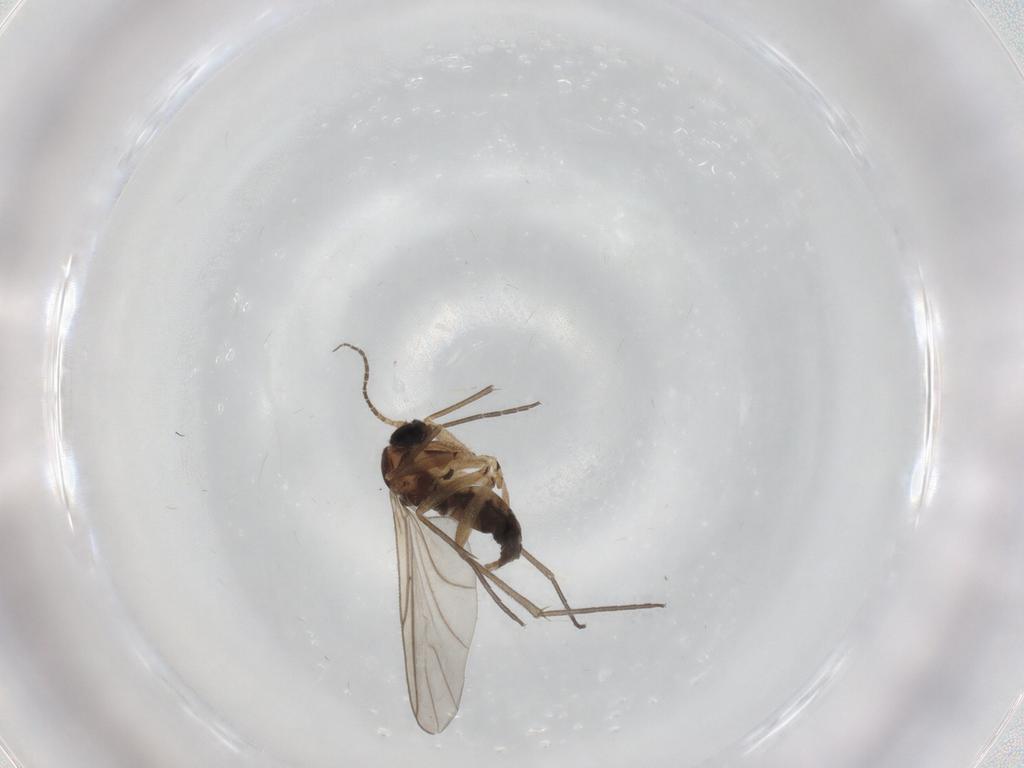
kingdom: Animalia
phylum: Arthropoda
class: Insecta
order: Diptera
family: Sciaridae
